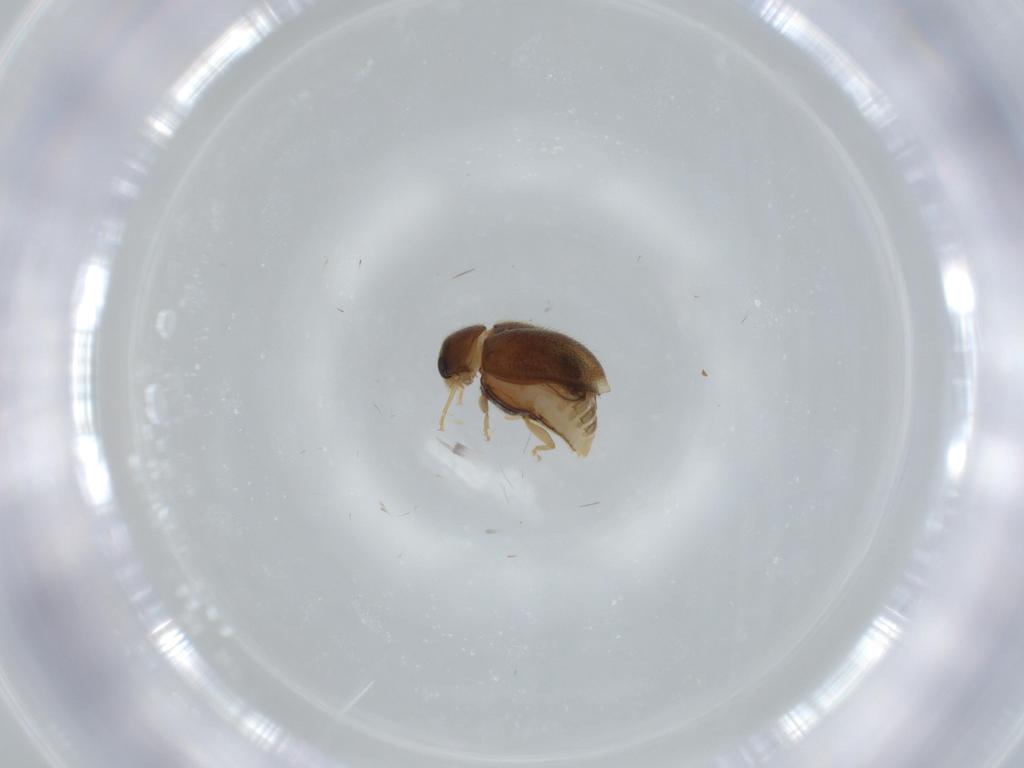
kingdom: Animalia
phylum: Arthropoda
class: Insecta
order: Coleoptera
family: Coccinellidae
